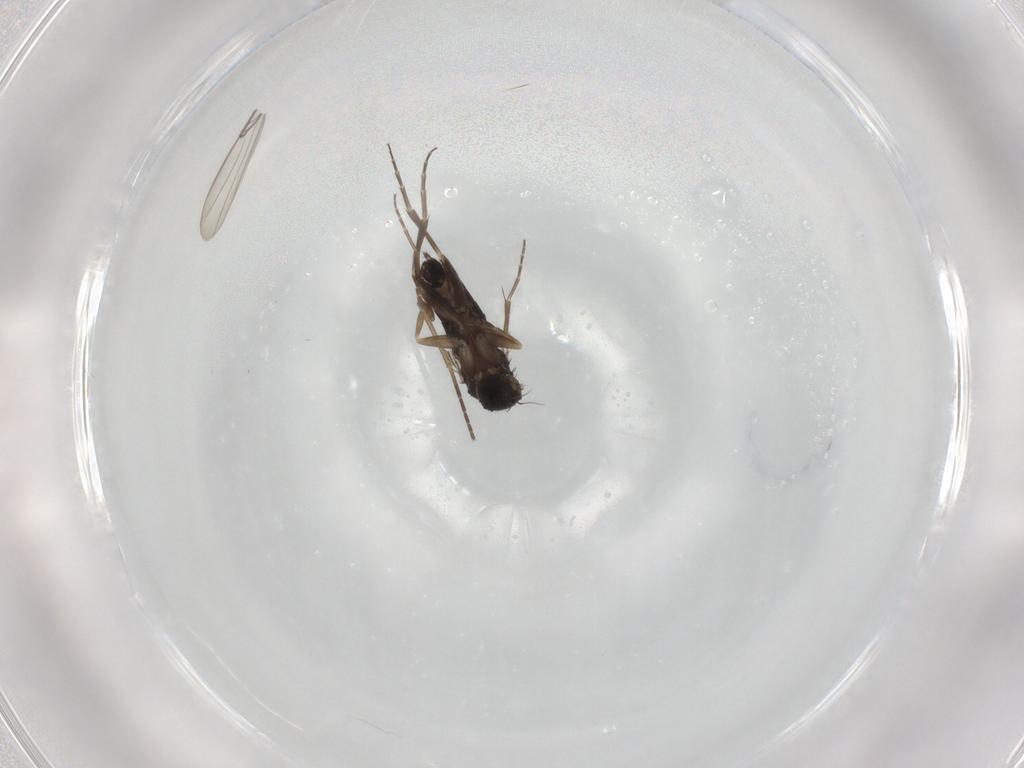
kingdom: Animalia
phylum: Arthropoda
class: Insecta
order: Diptera
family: Phoridae
